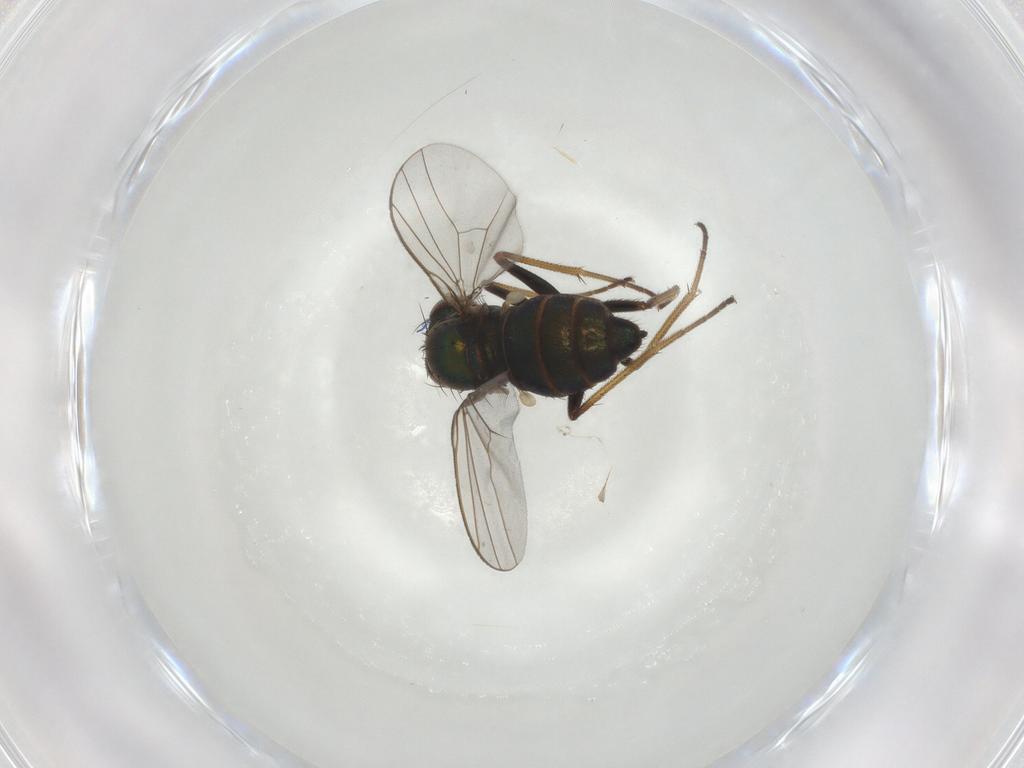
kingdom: Animalia
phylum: Arthropoda
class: Insecta
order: Diptera
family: Dolichopodidae
